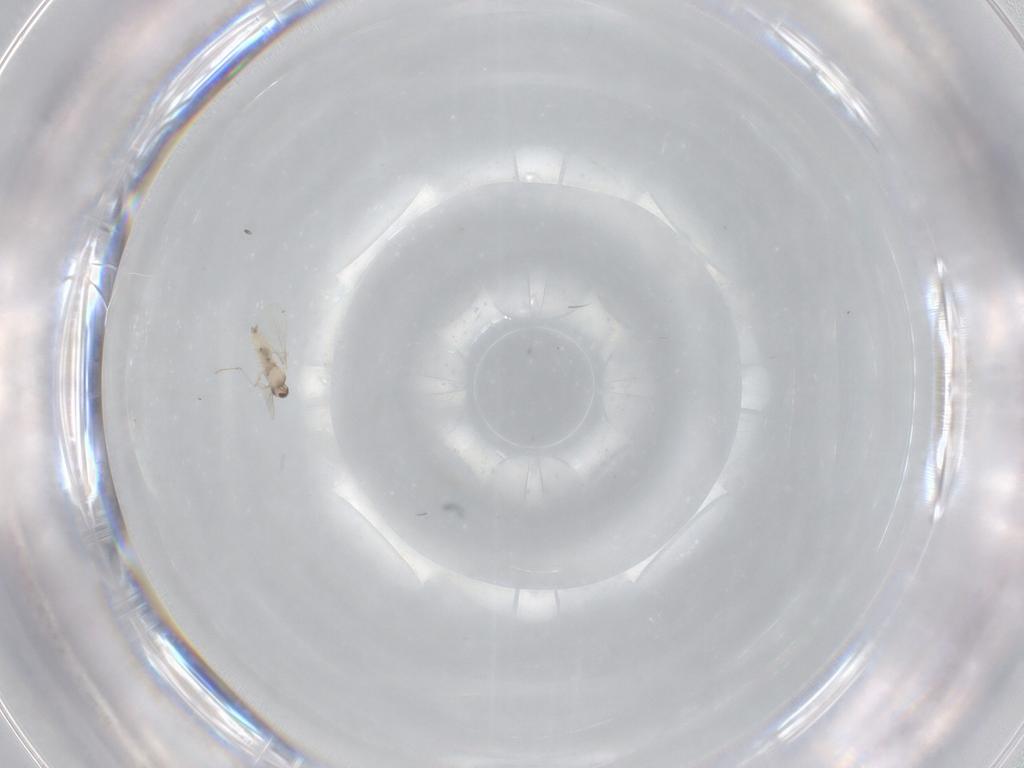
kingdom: Animalia
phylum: Arthropoda
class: Insecta
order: Diptera
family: Cecidomyiidae
